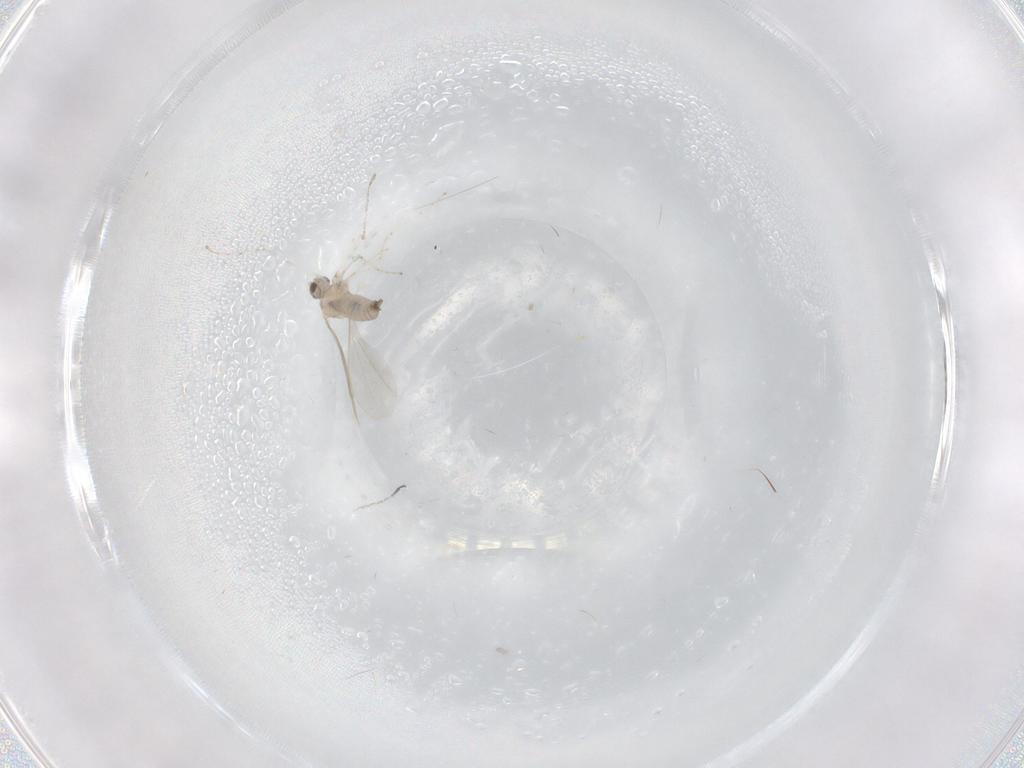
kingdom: Animalia
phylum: Arthropoda
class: Insecta
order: Diptera
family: Cecidomyiidae
